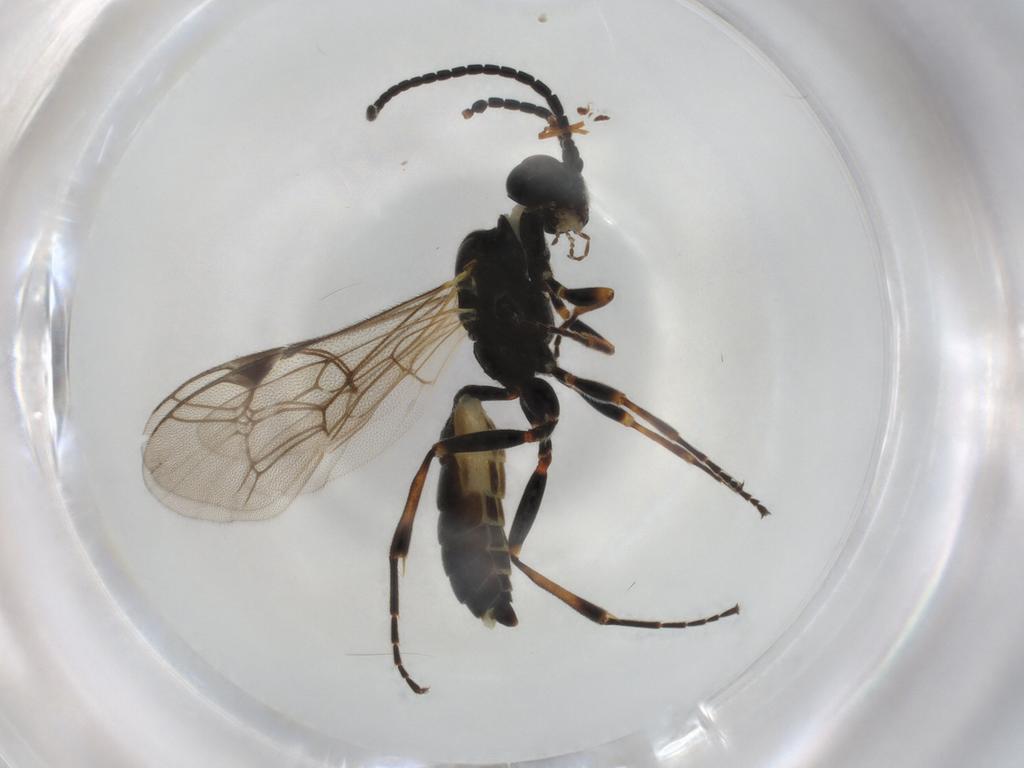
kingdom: Animalia
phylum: Arthropoda
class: Insecta
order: Hymenoptera
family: Ichneumonidae
